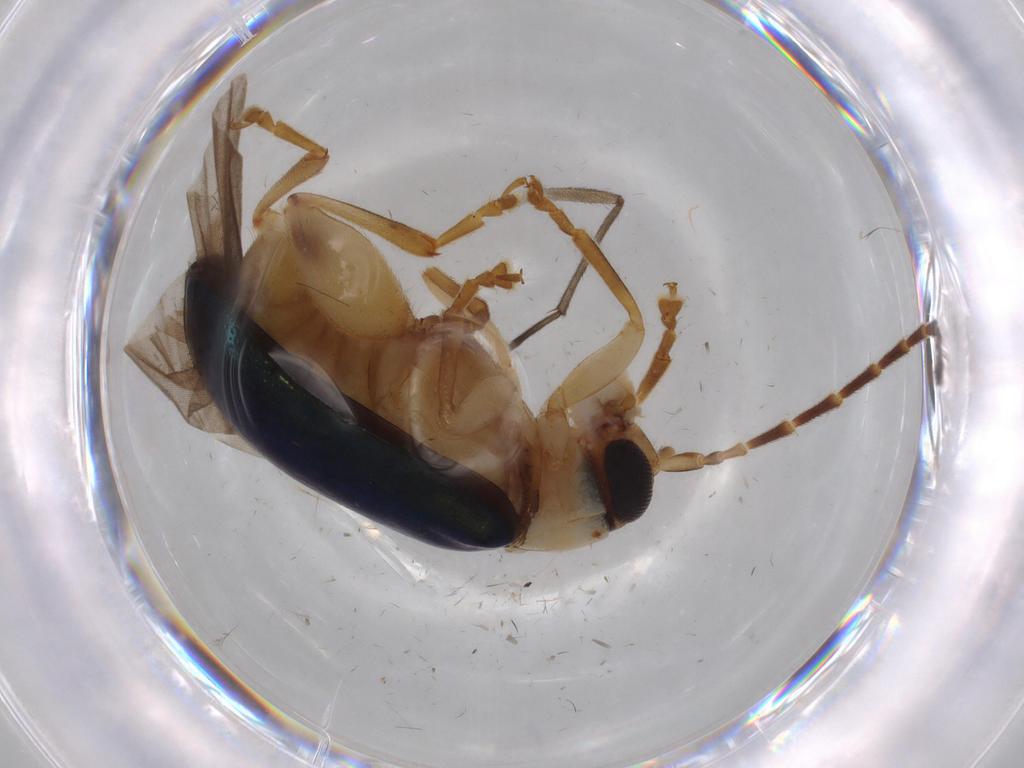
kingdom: Animalia
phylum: Arthropoda
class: Insecta
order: Coleoptera
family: Chrysomelidae
